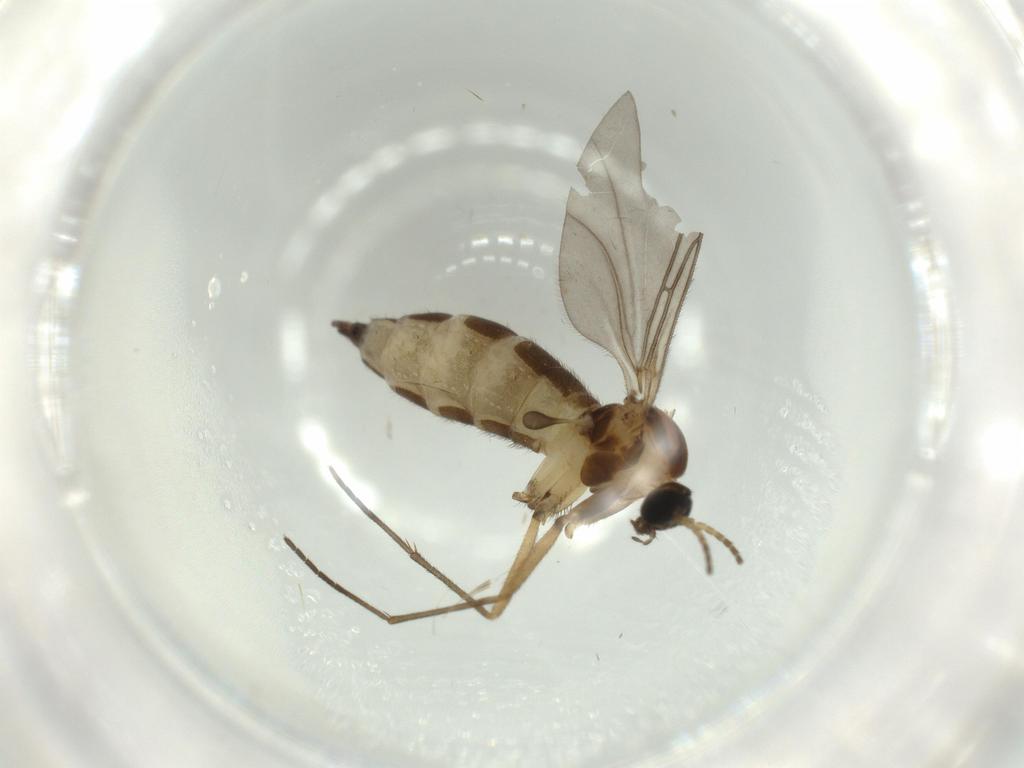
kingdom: Animalia
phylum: Arthropoda
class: Insecta
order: Diptera
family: Sciaridae
